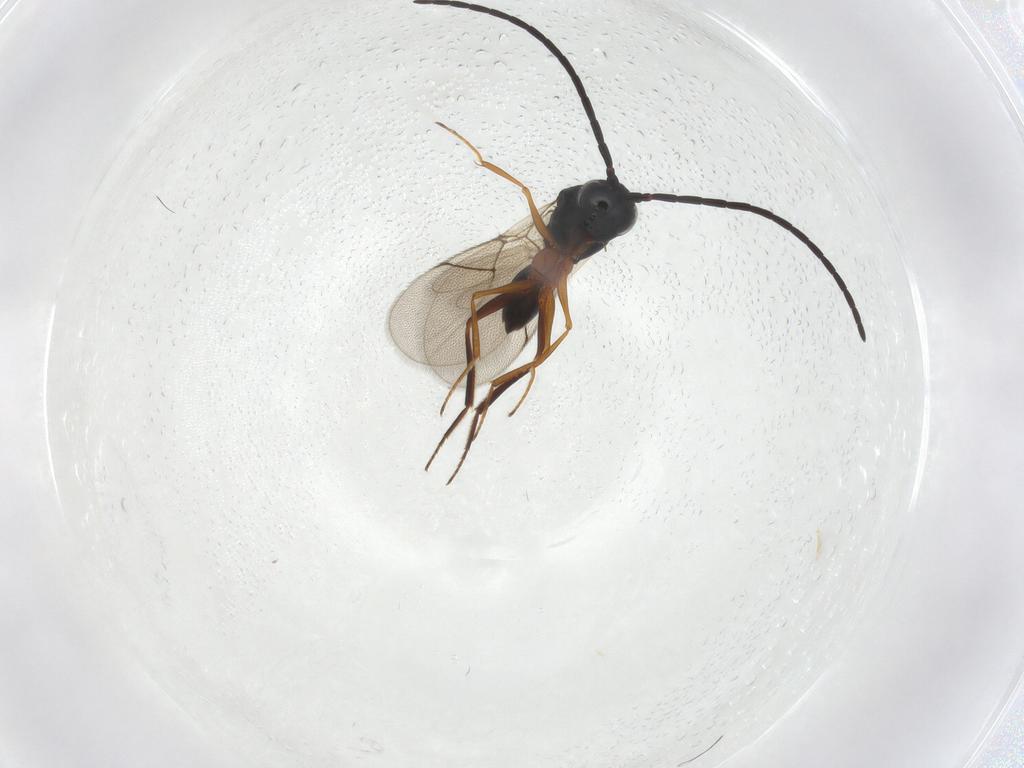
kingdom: Animalia
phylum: Arthropoda
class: Insecta
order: Hymenoptera
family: Figitidae
